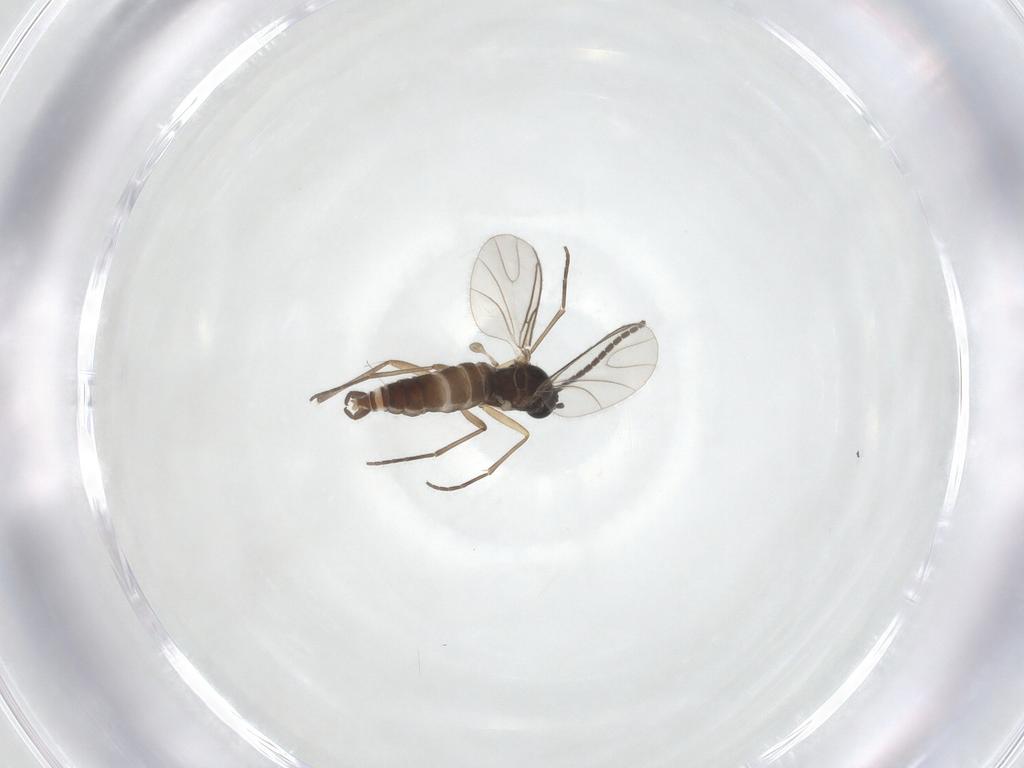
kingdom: Animalia
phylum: Arthropoda
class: Insecta
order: Diptera
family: Sciaridae
